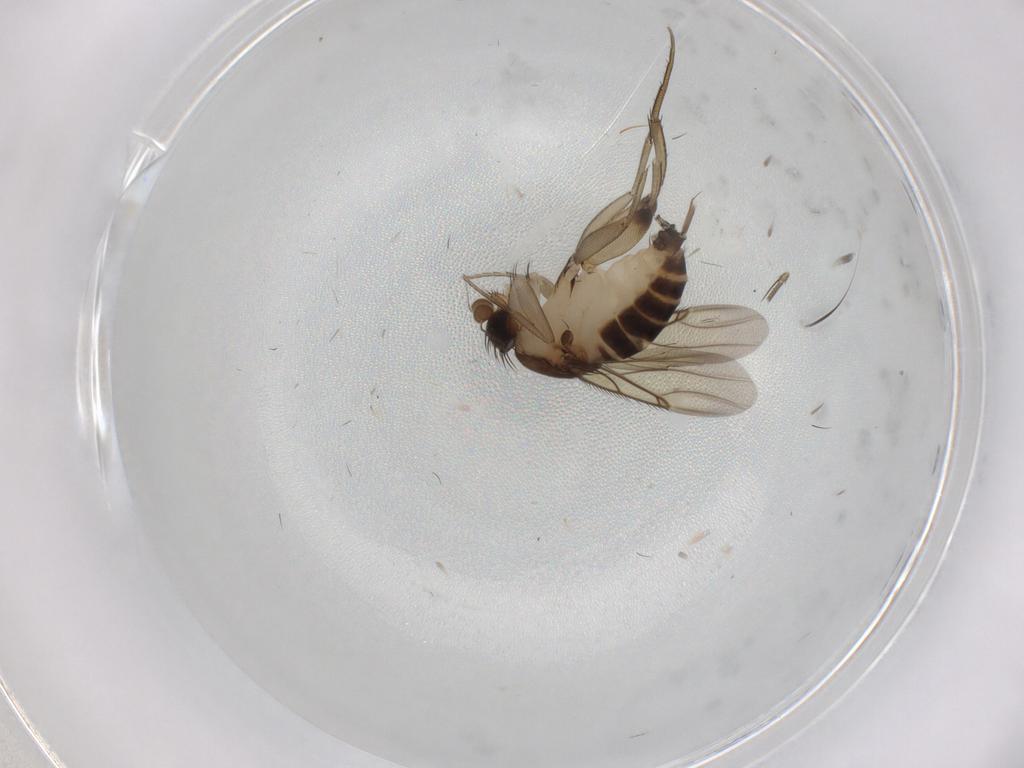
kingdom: Animalia
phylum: Arthropoda
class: Insecta
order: Diptera
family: Phoridae
